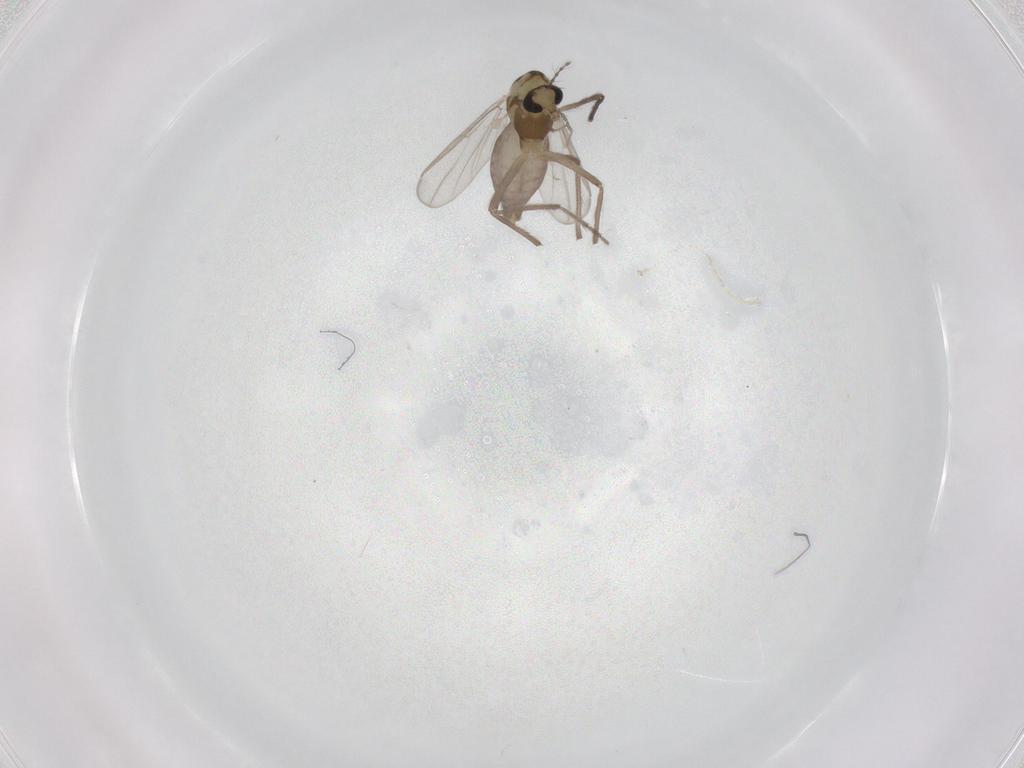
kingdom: Animalia
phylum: Arthropoda
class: Insecta
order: Diptera
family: Chironomidae
